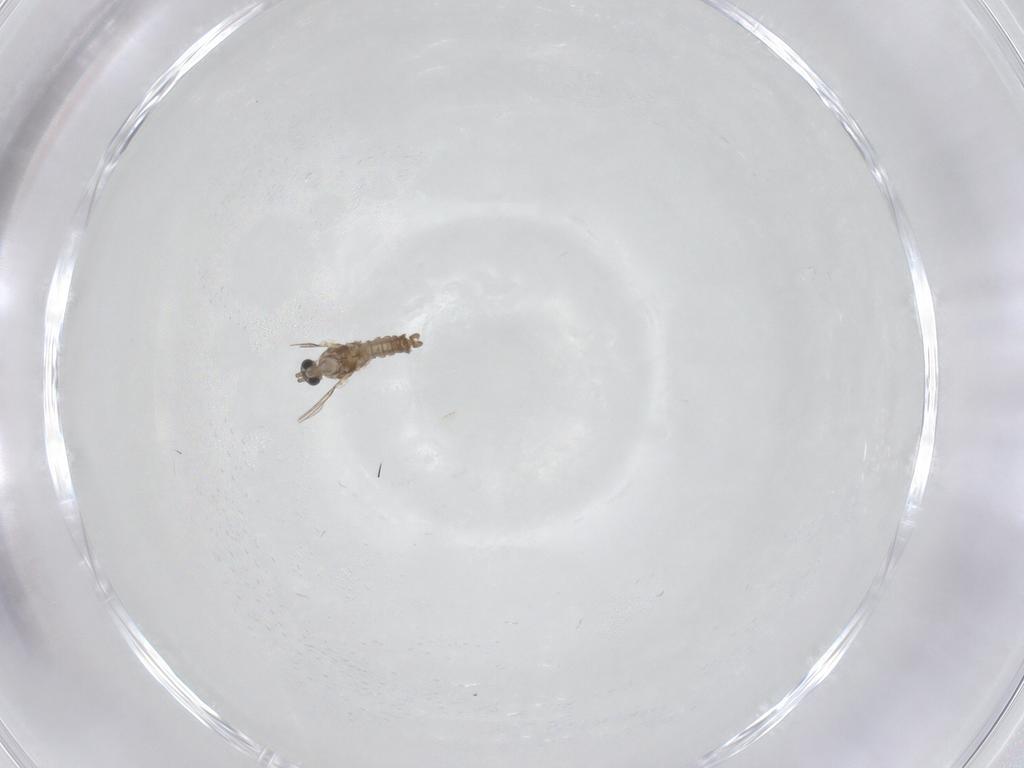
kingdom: Animalia
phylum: Arthropoda
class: Insecta
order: Diptera
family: Cecidomyiidae
